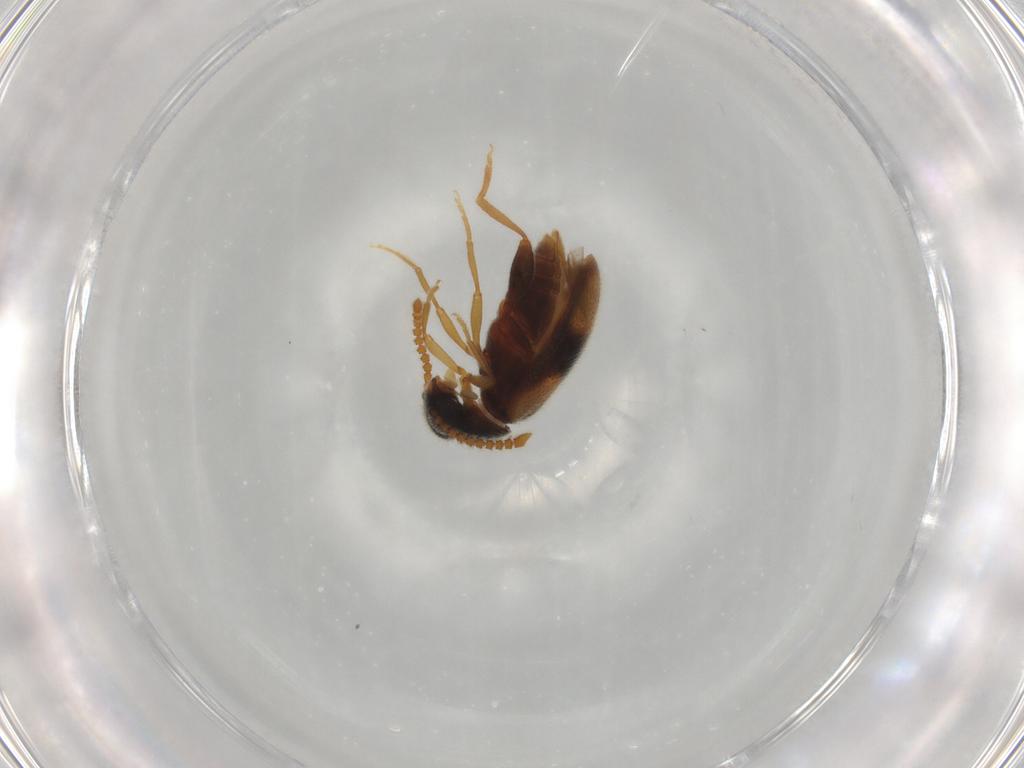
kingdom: Animalia
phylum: Arthropoda
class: Insecta
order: Coleoptera
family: Aderidae
